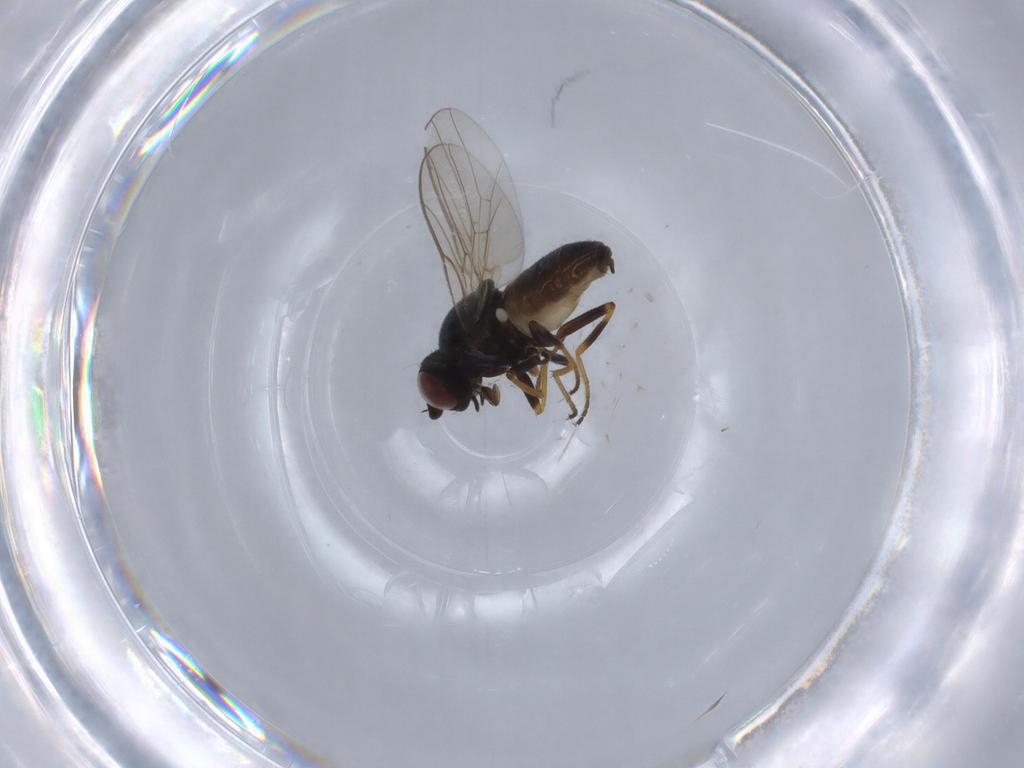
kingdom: Animalia
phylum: Arthropoda
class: Insecta
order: Diptera
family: Chloropidae
